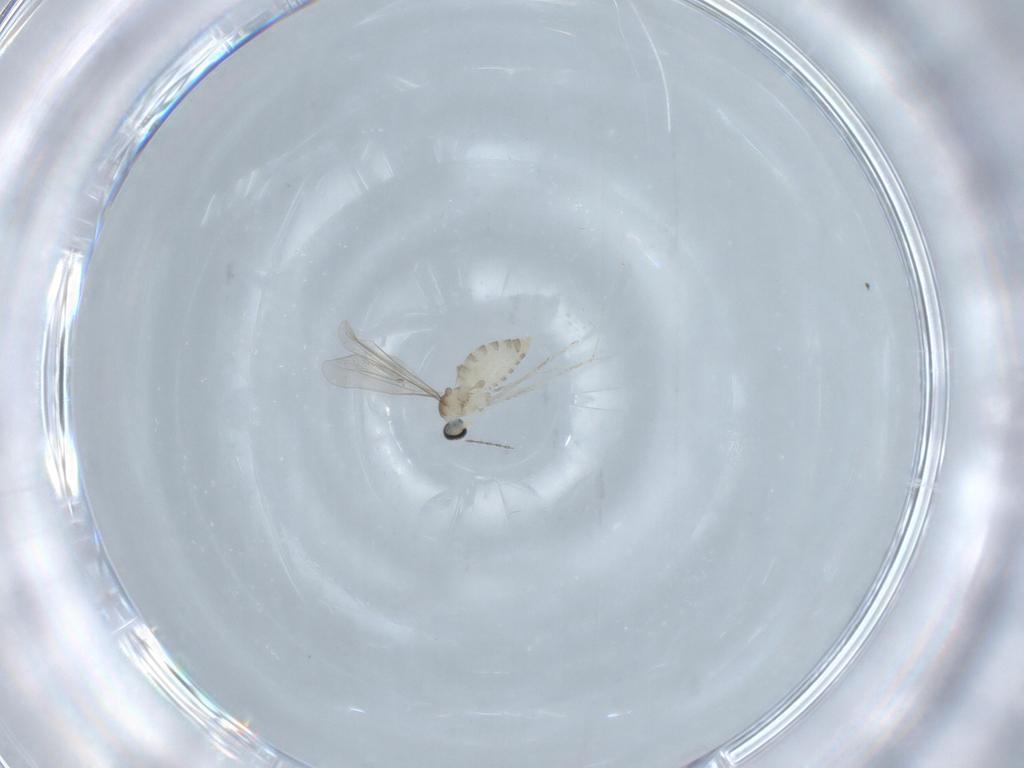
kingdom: Animalia
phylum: Arthropoda
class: Insecta
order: Diptera
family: Cecidomyiidae
